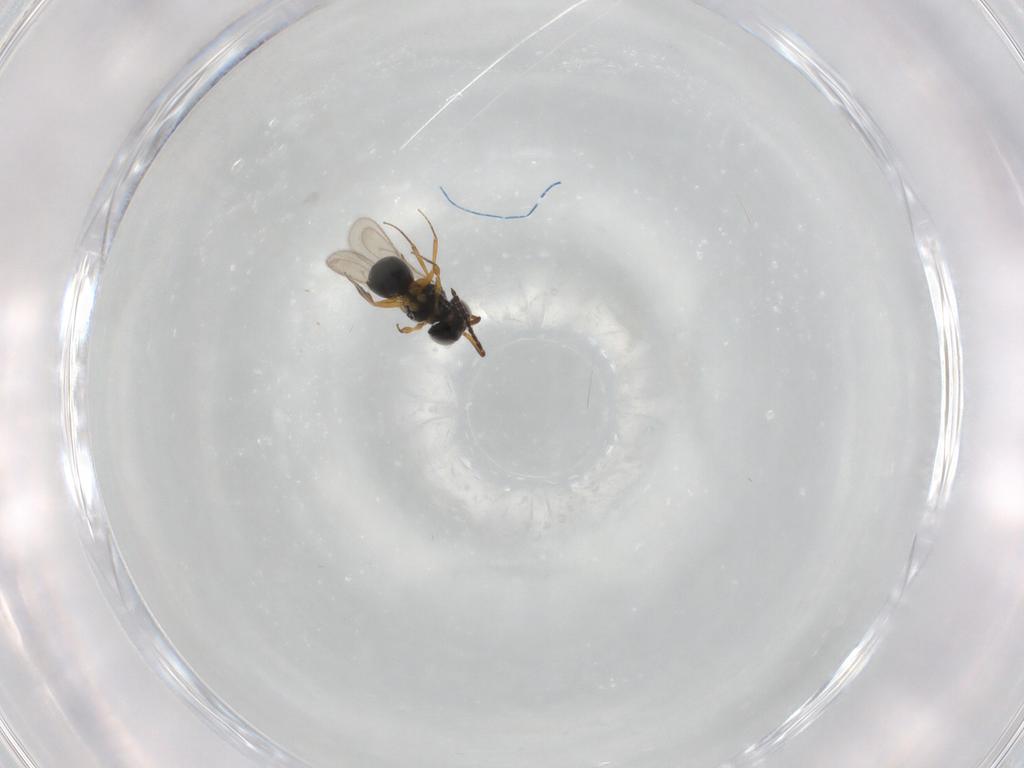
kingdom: Animalia
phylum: Arthropoda
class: Insecta
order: Hymenoptera
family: Scelionidae
